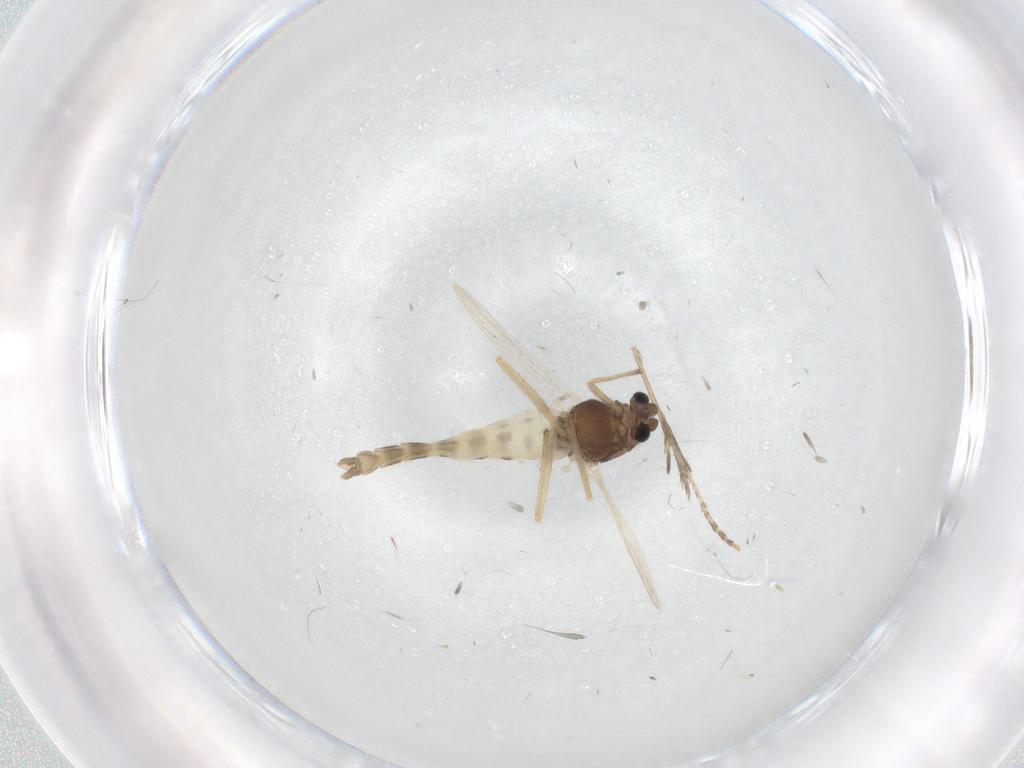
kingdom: Animalia
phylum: Arthropoda
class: Insecta
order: Diptera
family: Chironomidae
